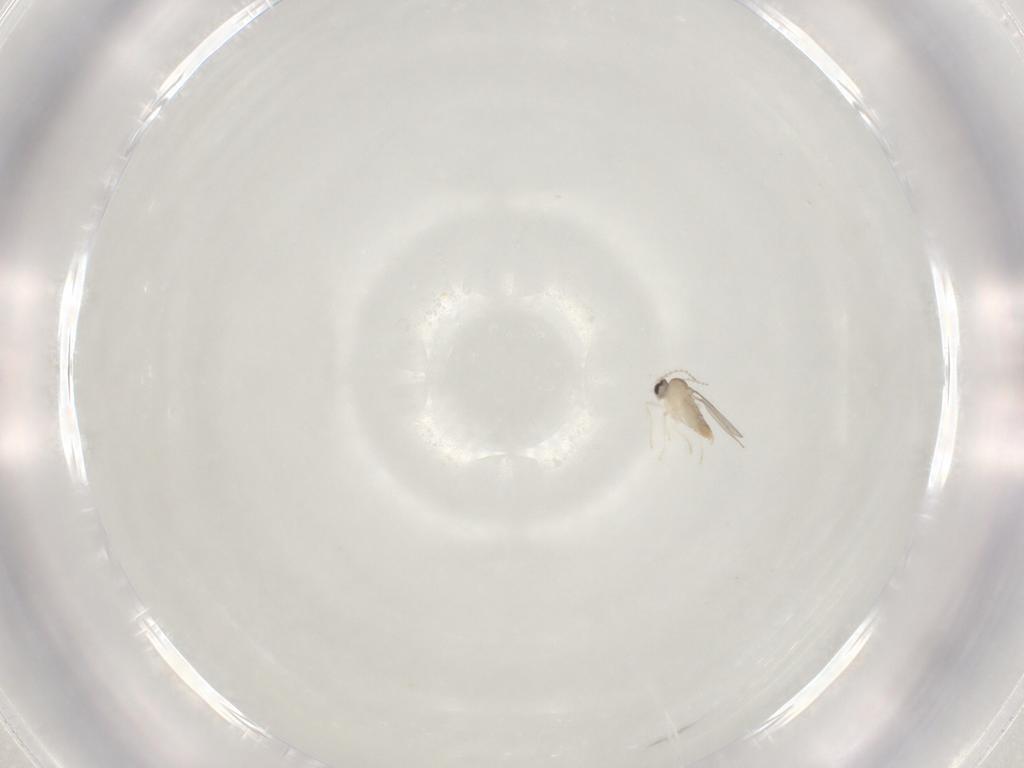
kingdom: Animalia
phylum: Arthropoda
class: Insecta
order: Diptera
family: Cecidomyiidae
